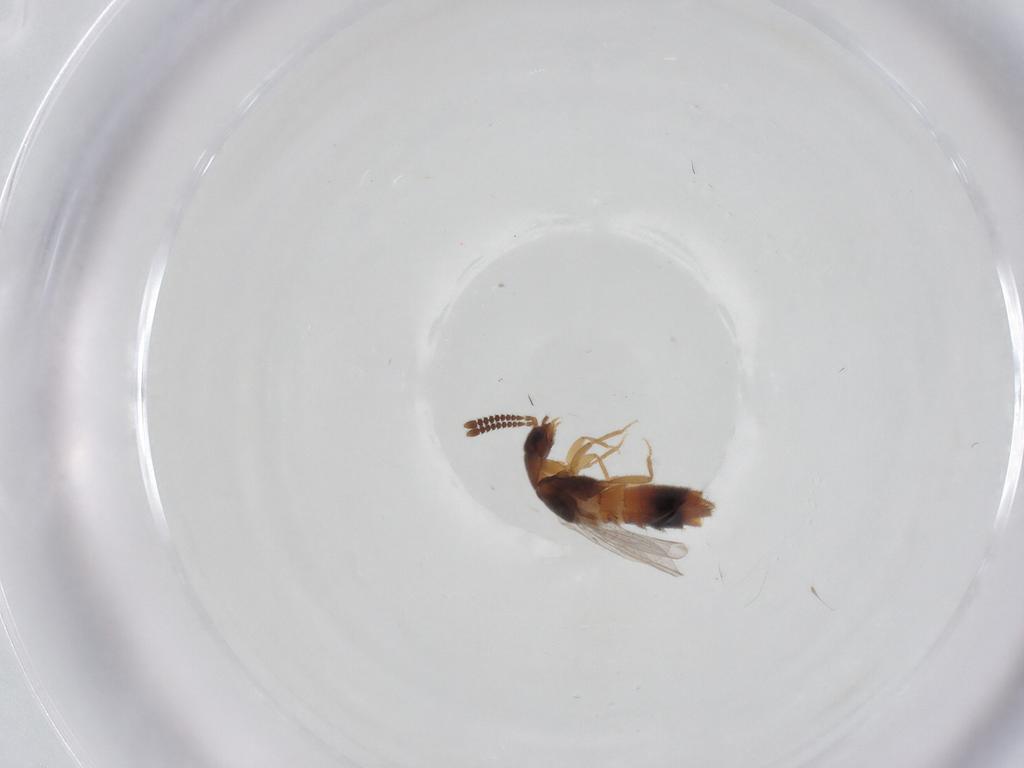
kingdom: Animalia
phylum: Arthropoda
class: Insecta
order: Coleoptera
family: Staphylinidae
